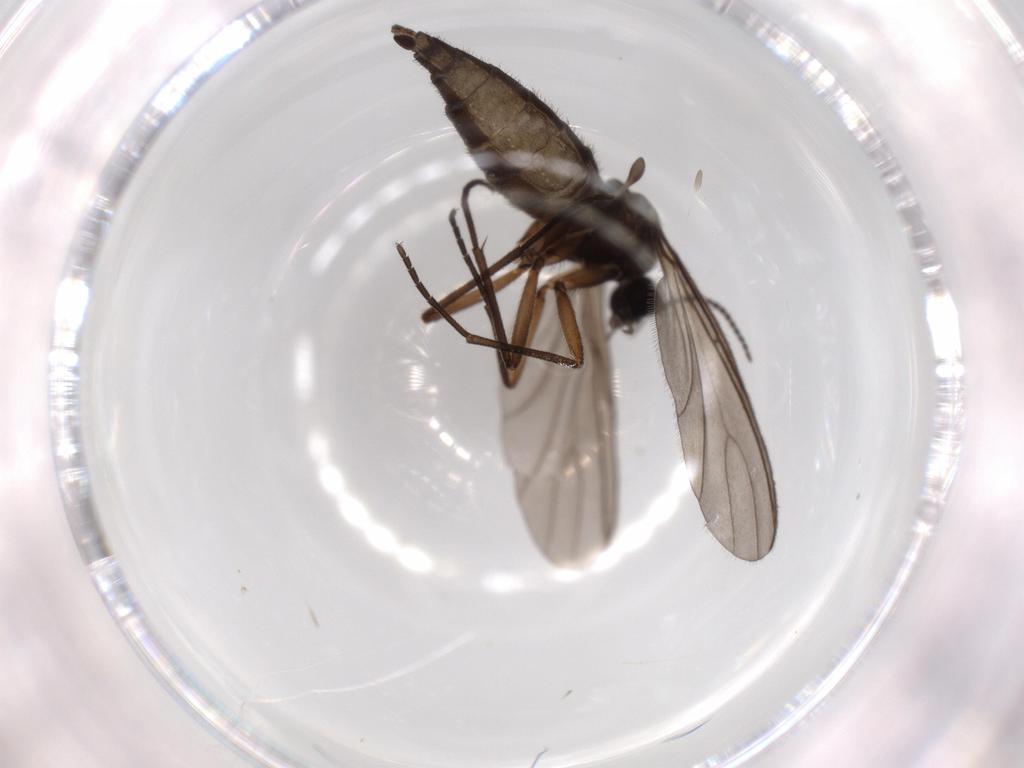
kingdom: Animalia
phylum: Arthropoda
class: Insecta
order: Diptera
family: Sciaridae
